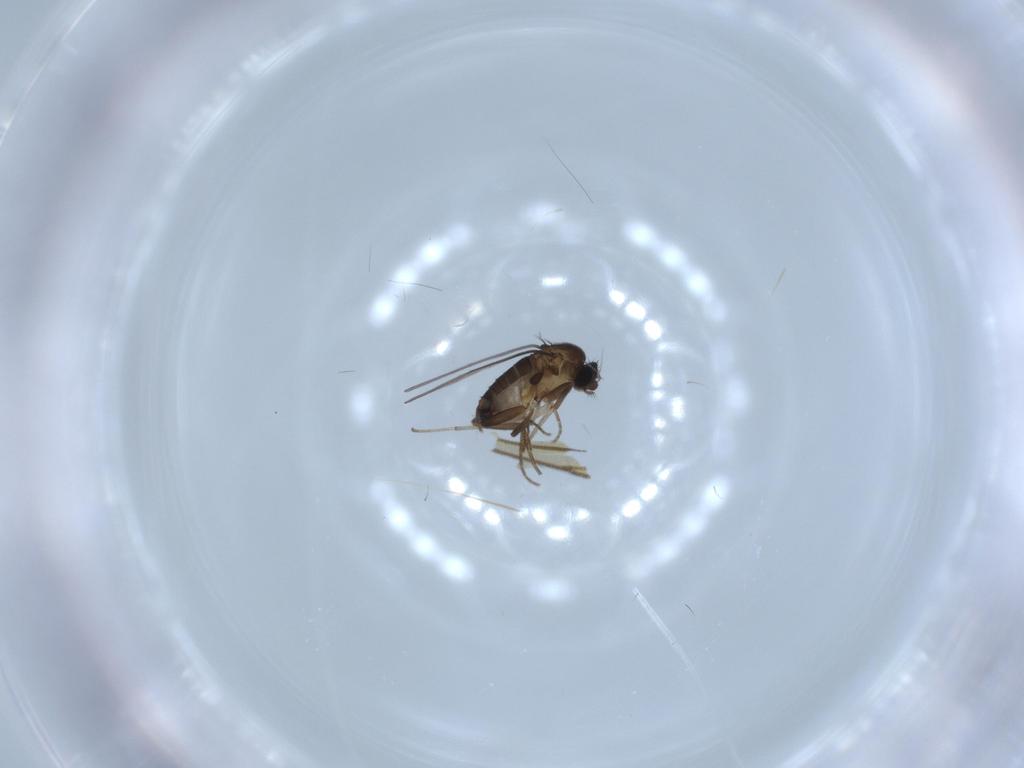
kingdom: Animalia
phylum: Arthropoda
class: Insecta
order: Diptera
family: Phoridae
